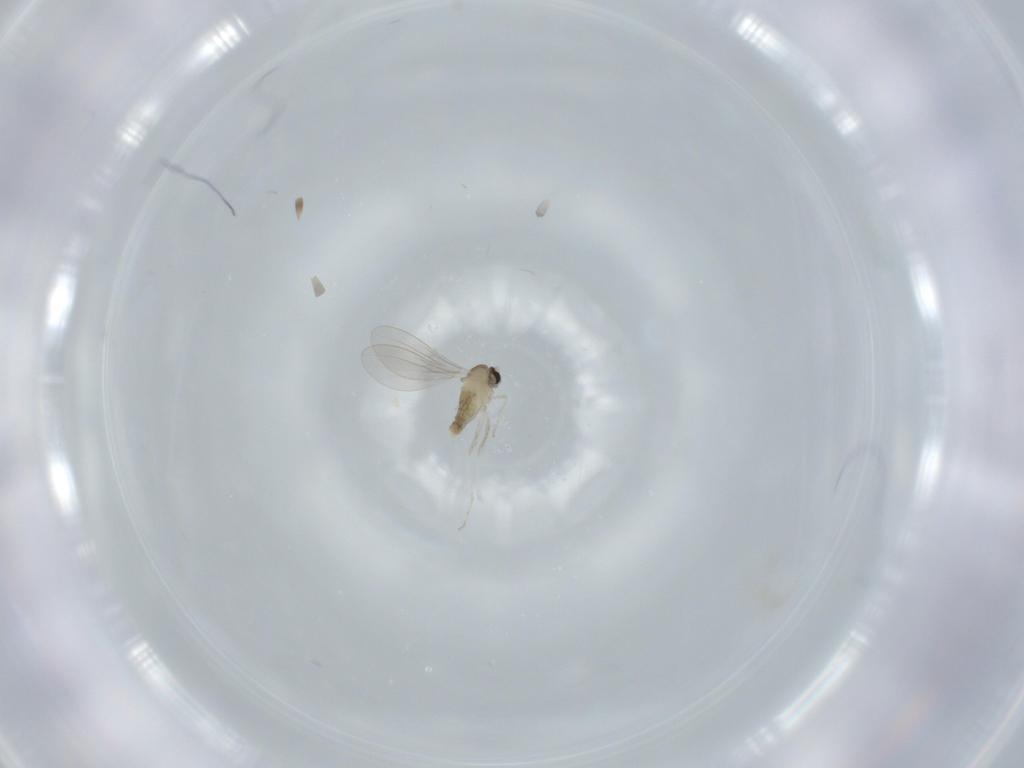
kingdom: Animalia
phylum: Arthropoda
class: Insecta
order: Diptera
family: Cecidomyiidae
